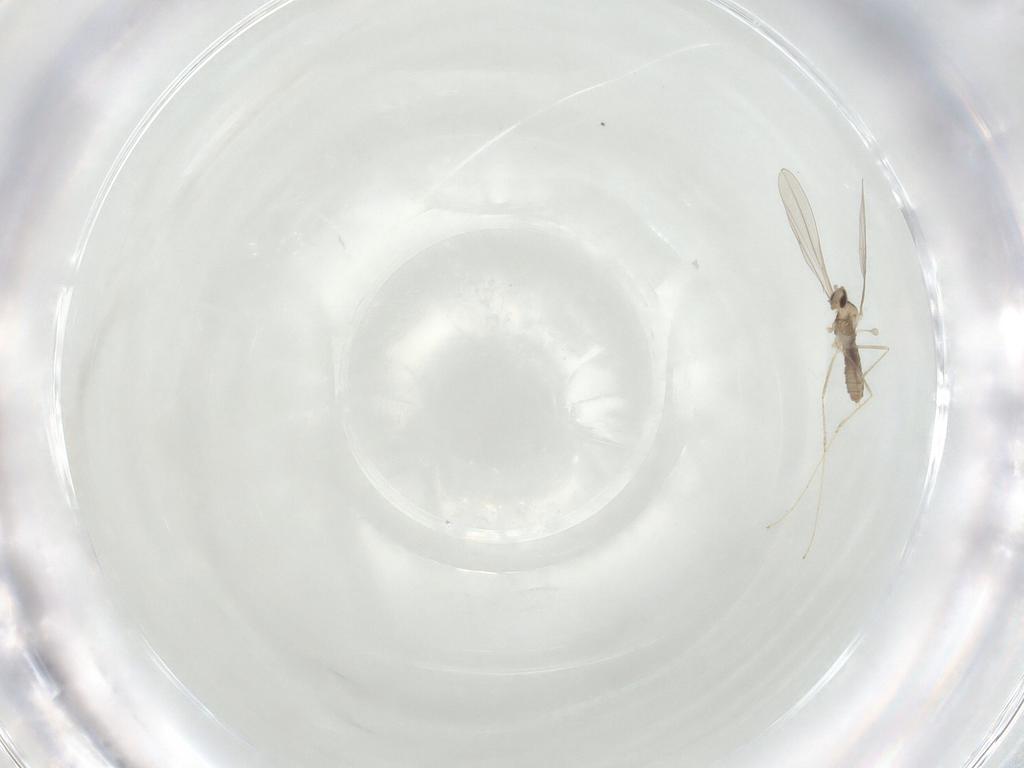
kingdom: Animalia
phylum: Arthropoda
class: Insecta
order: Diptera
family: Cecidomyiidae
